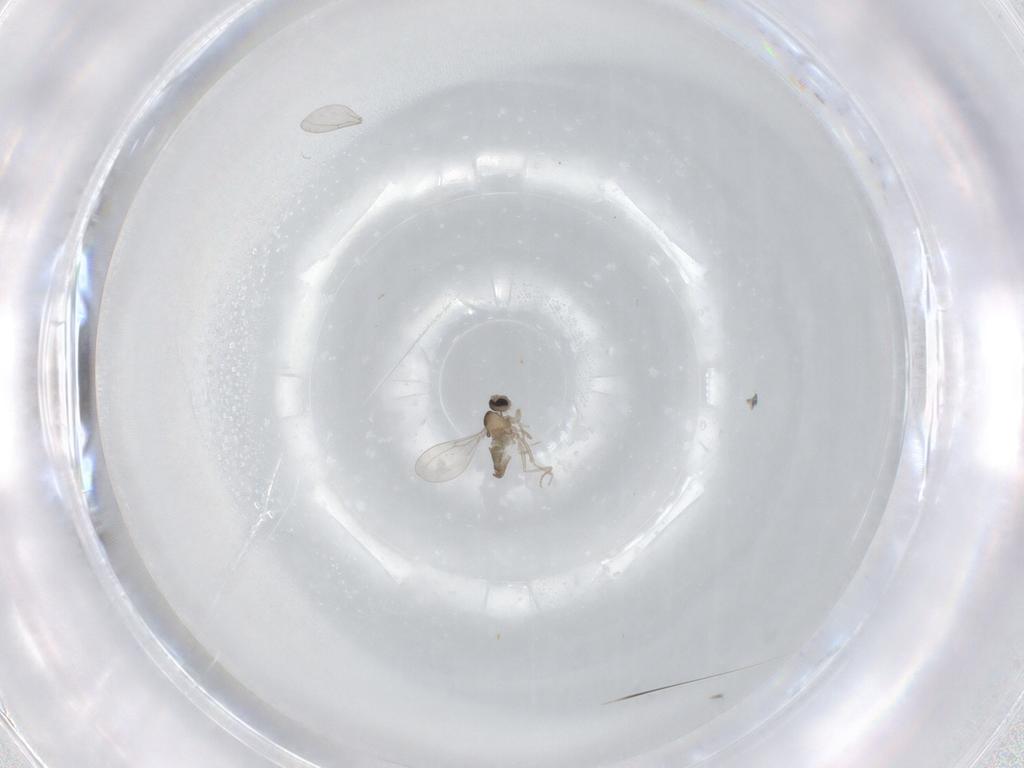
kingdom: Animalia
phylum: Arthropoda
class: Insecta
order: Diptera
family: Cecidomyiidae
